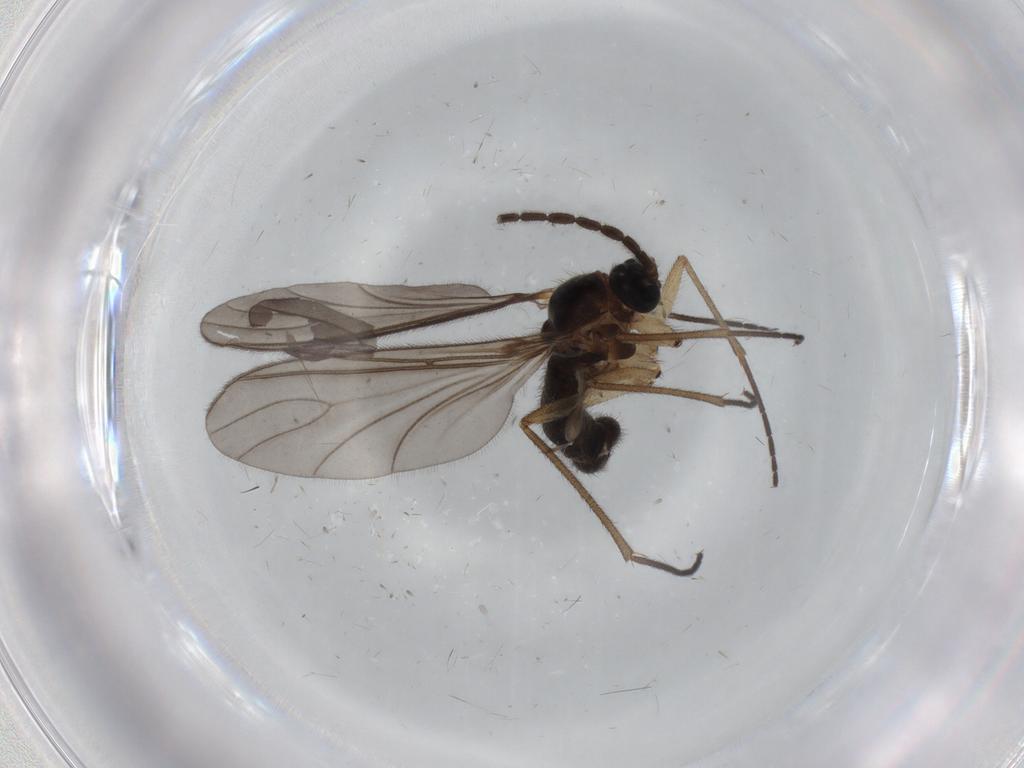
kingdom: Animalia
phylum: Arthropoda
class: Insecta
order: Diptera
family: Sciaridae
